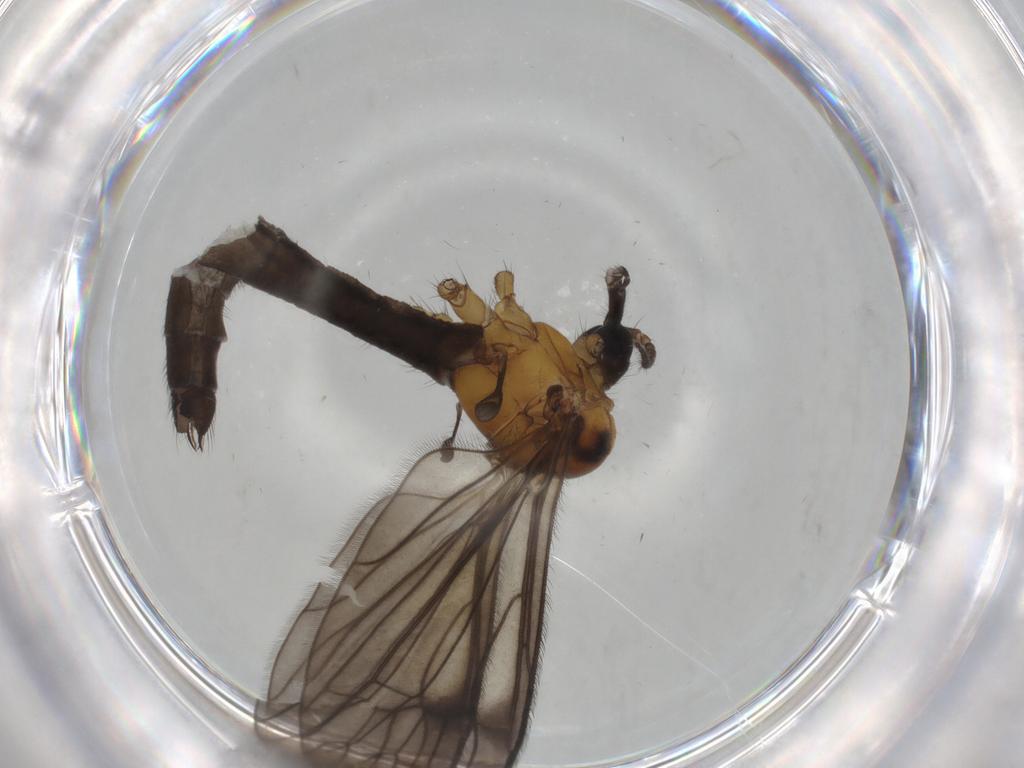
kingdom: Animalia
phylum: Arthropoda
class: Insecta
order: Diptera
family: Psychodidae
